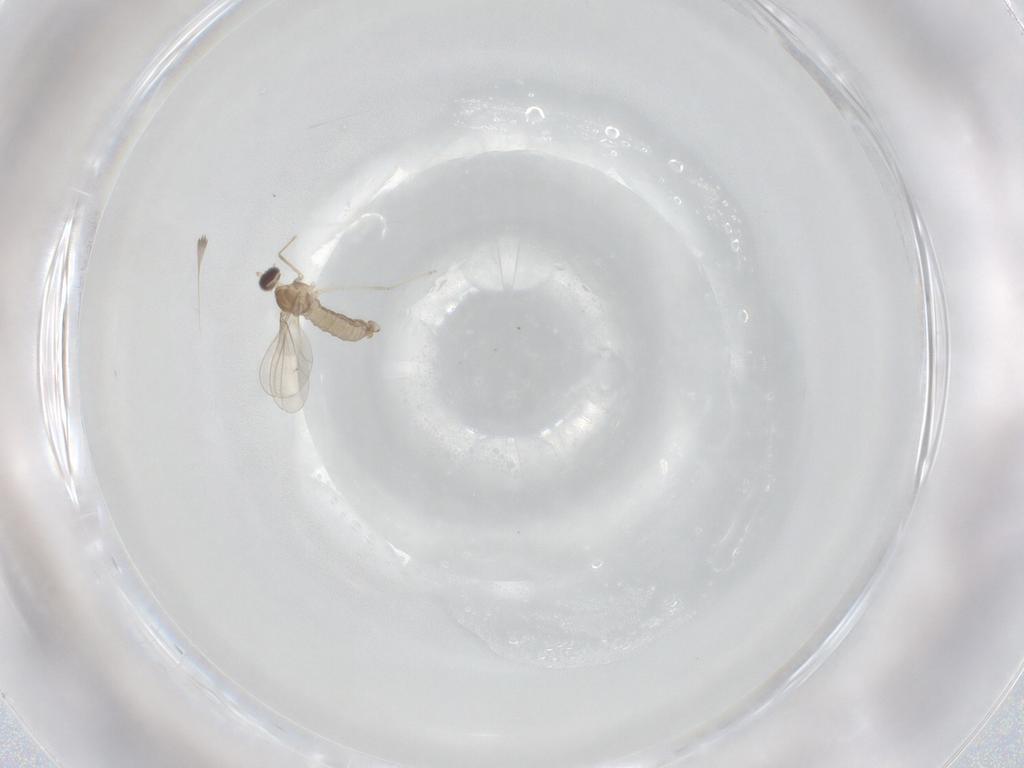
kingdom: Animalia
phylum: Arthropoda
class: Insecta
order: Diptera
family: Cecidomyiidae
